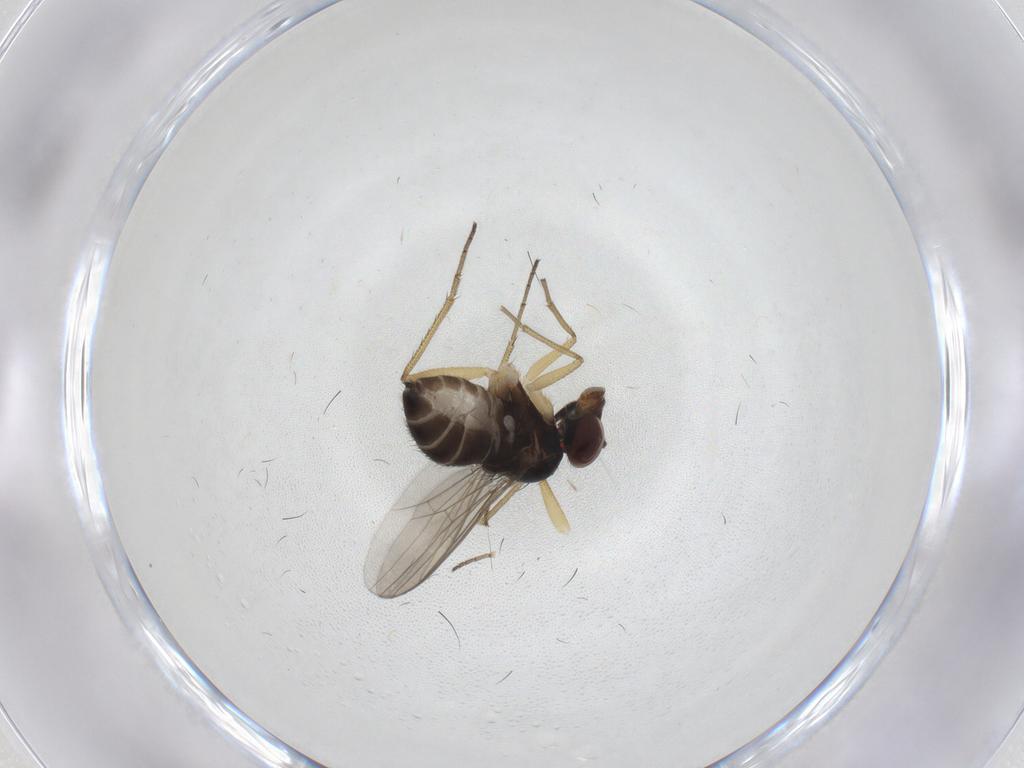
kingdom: Animalia
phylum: Arthropoda
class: Insecta
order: Diptera
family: Dolichopodidae
